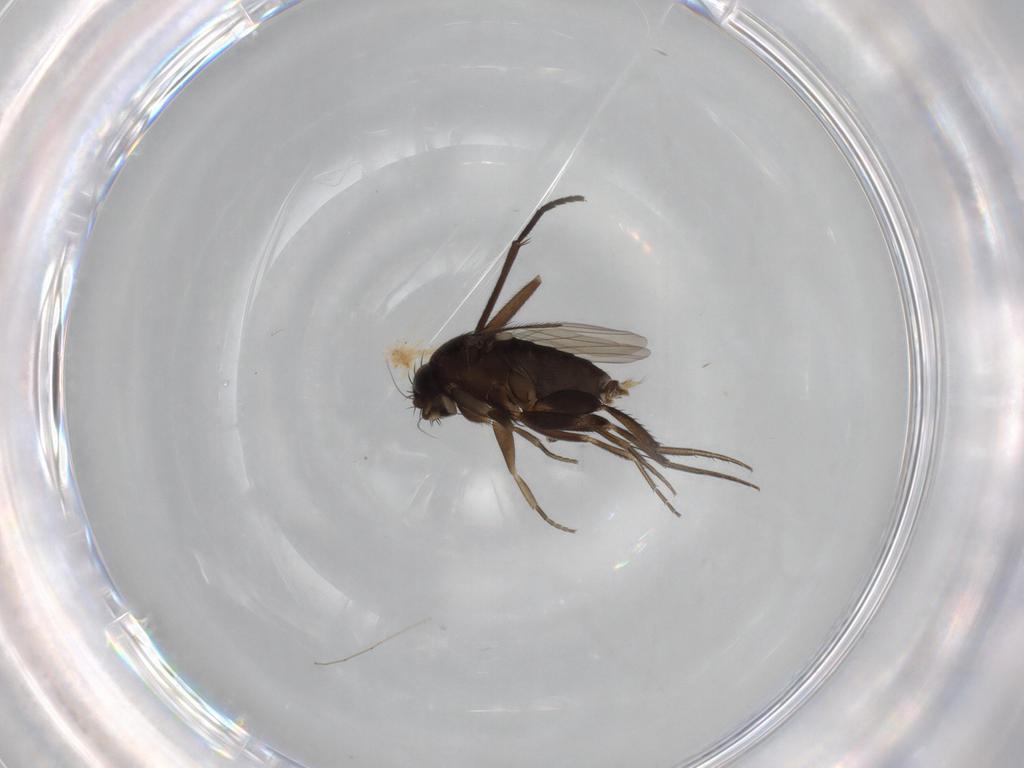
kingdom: Animalia
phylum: Arthropoda
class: Insecta
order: Diptera
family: Phoridae
